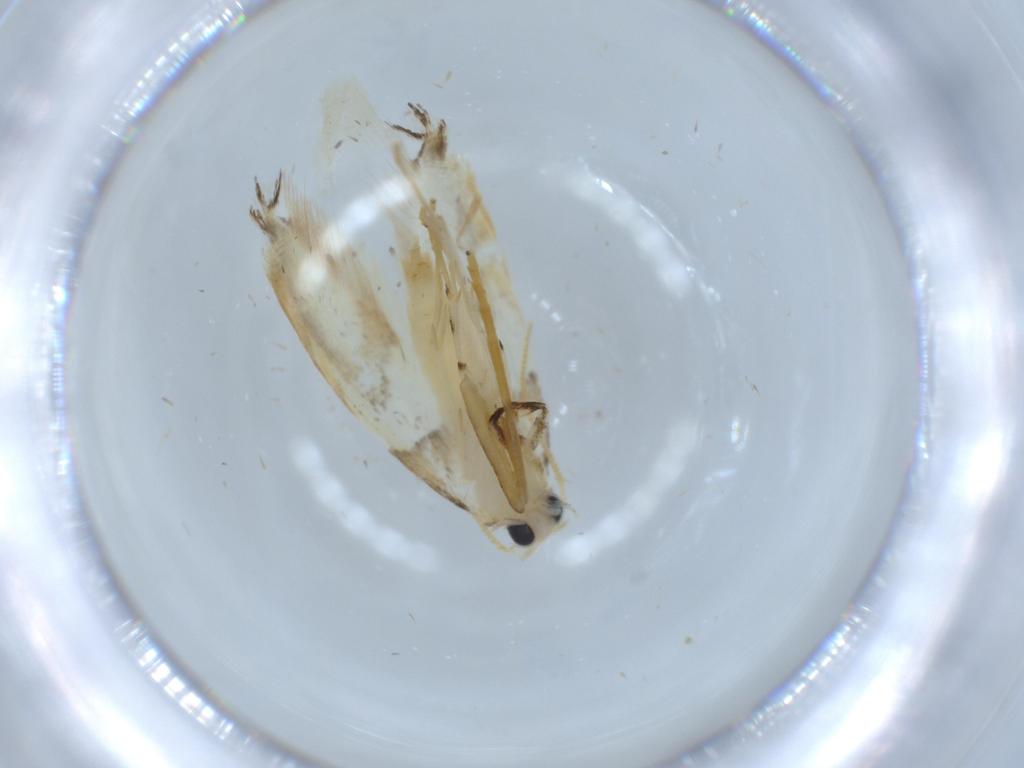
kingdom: Animalia
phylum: Arthropoda
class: Insecta
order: Lepidoptera
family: Tineidae
